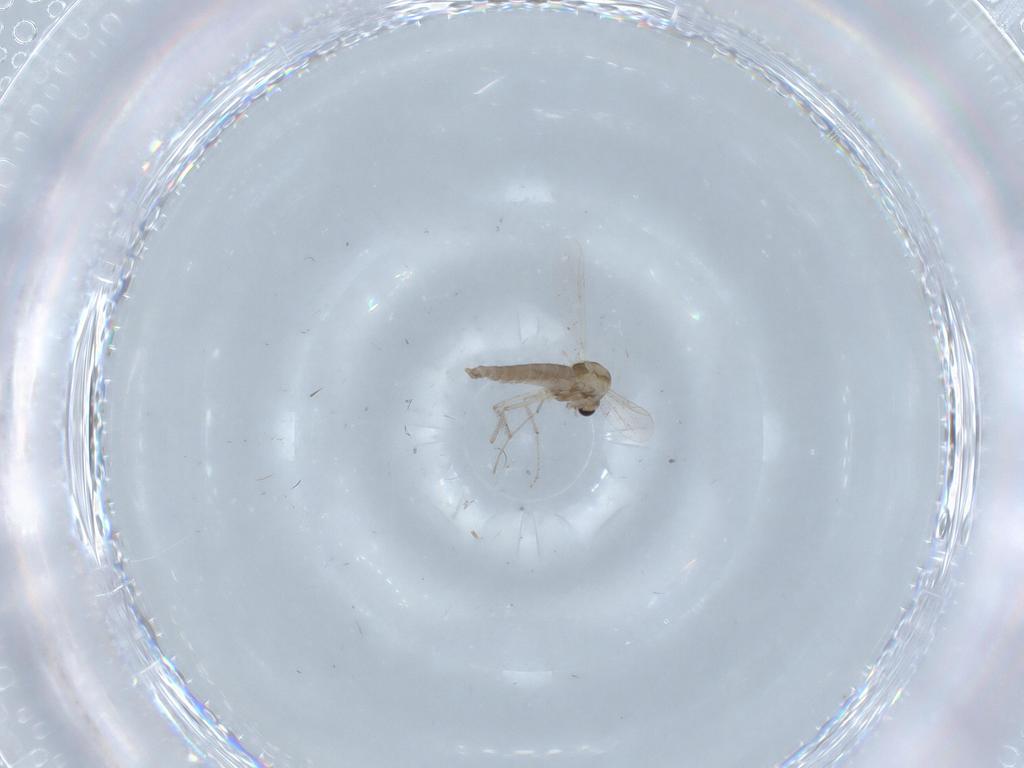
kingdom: Animalia
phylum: Arthropoda
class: Insecta
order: Diptera
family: Chironomidae
